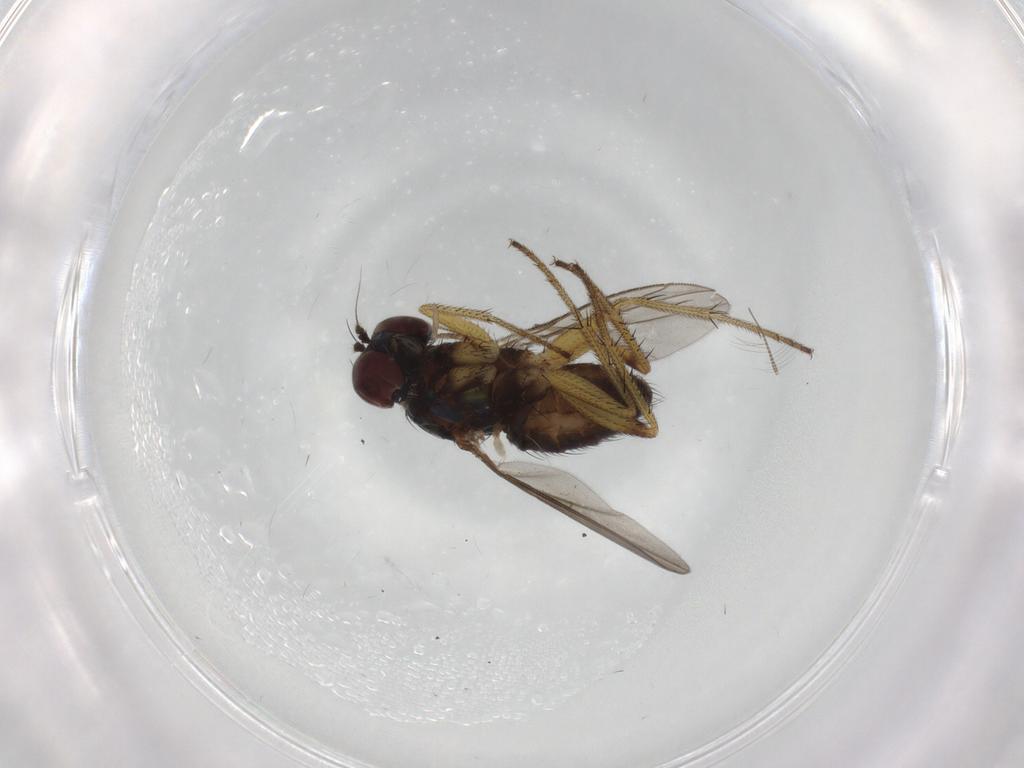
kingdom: Animalia
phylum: Arthropoda
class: Insecta
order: Diptera
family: Dolichopodidae
